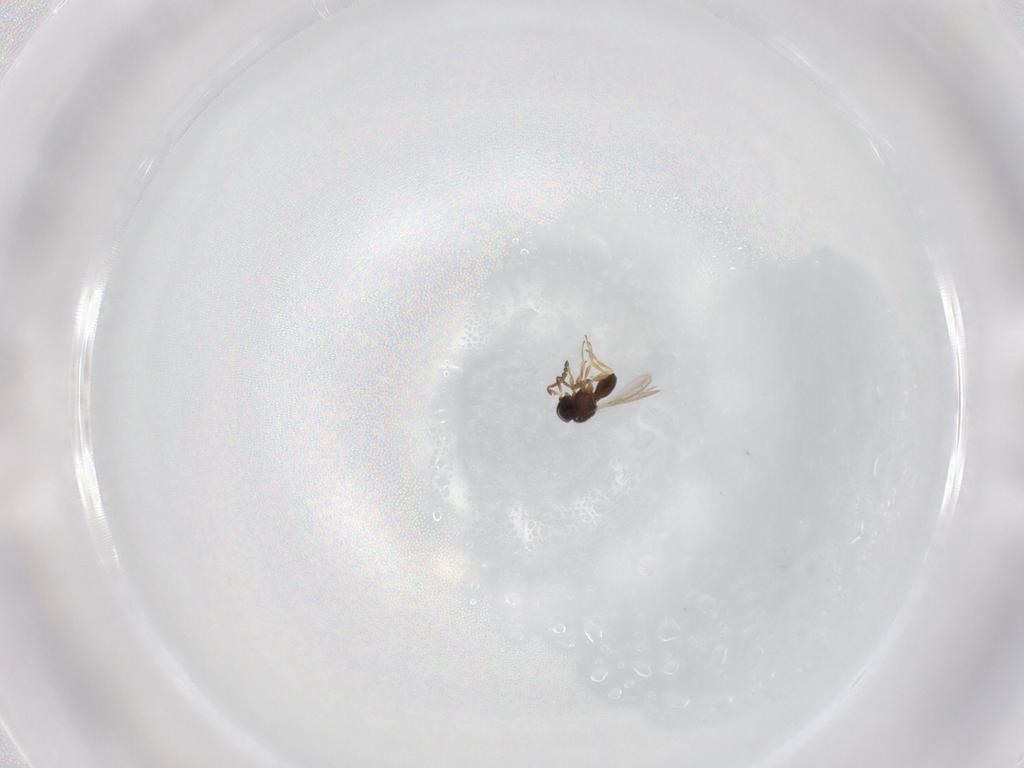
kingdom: Animalia
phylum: Arthropoda
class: Insecta
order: Hymenoptera
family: Scelionidae
